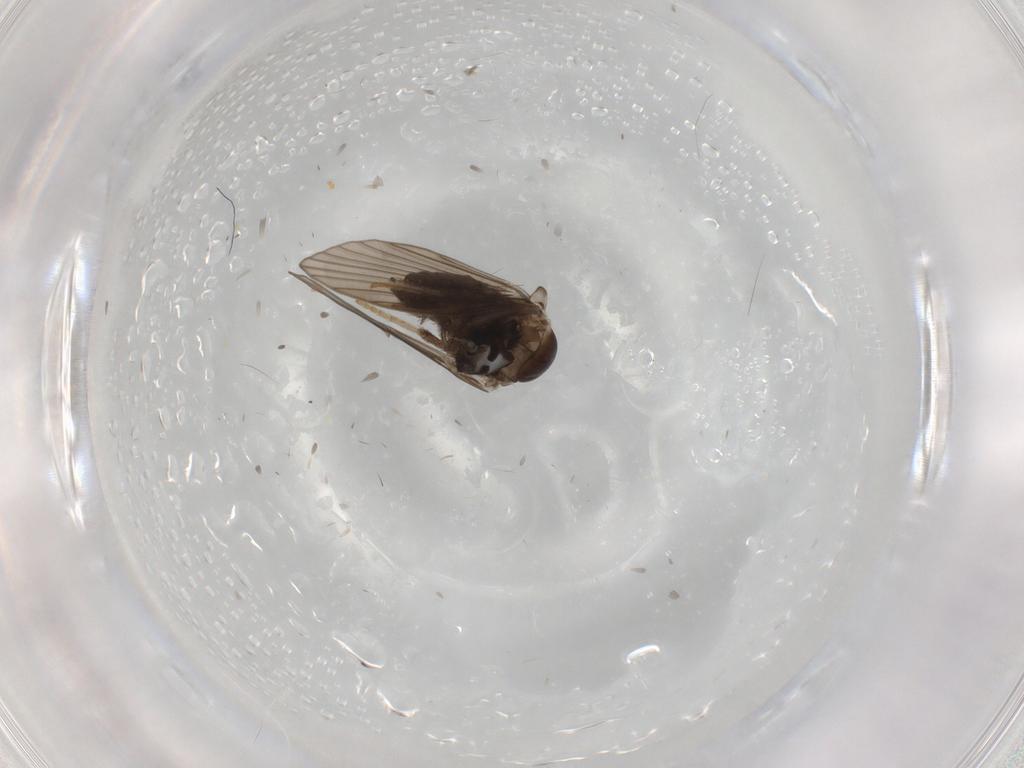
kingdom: Animalia
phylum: Arthropoda
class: Insecta
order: Diptera
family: Psychodidae
